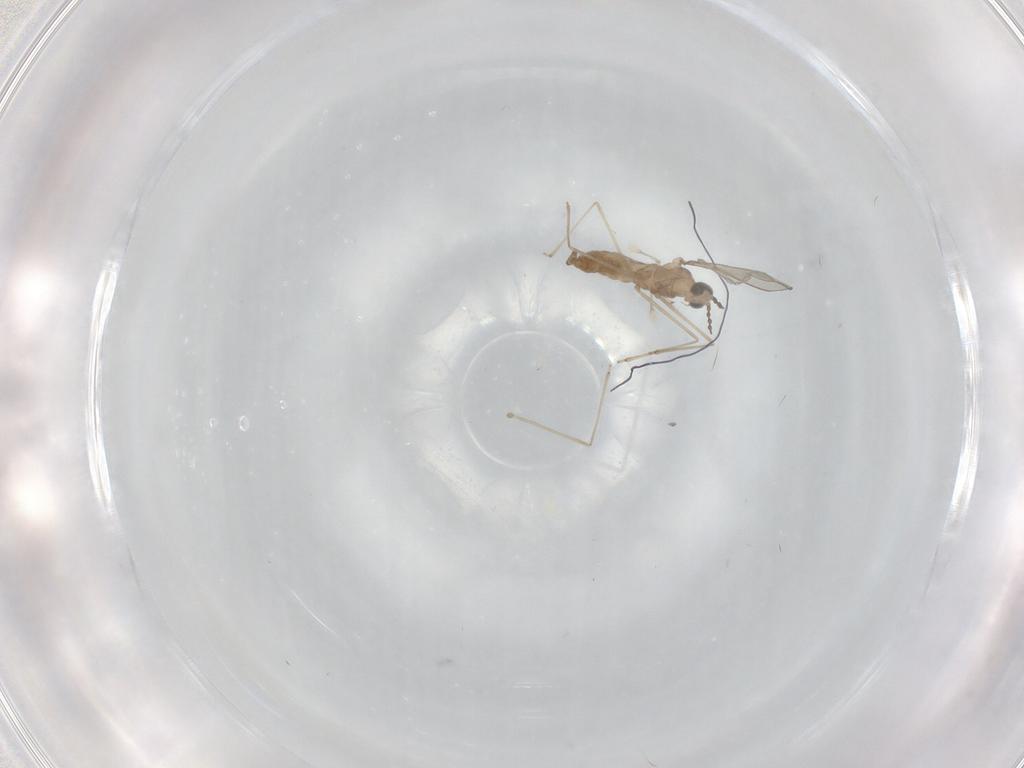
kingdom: Animalia
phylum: Arthropoda
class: Insecta
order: Diptera
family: Cecidomyiidae
